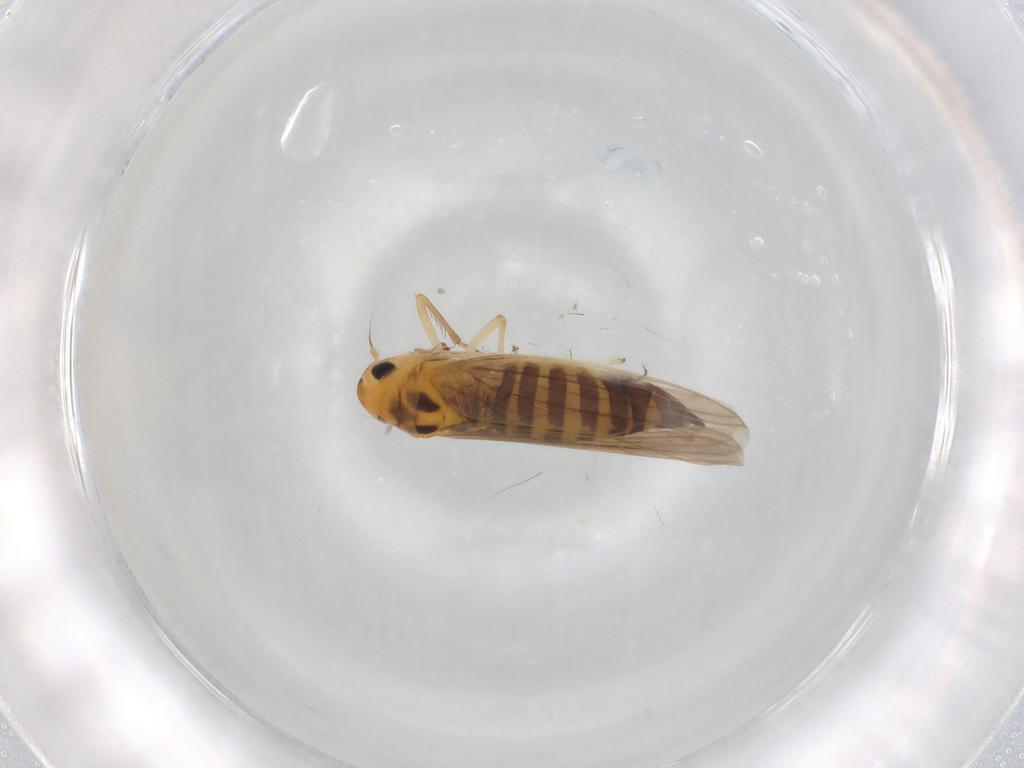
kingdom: Animalia
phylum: Arthropoda
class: Insecta
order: Hemiptera
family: Cicadellidae
